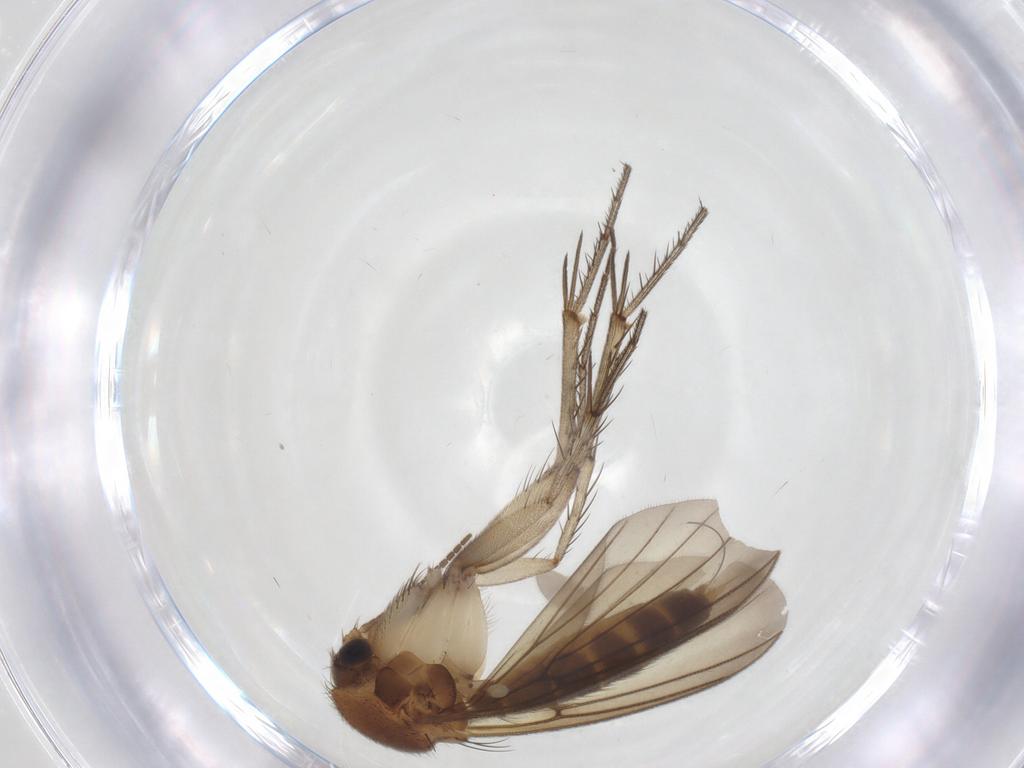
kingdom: Animalia
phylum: Arthropoda
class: Insecta
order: Diptera
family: Mycetophilidae
